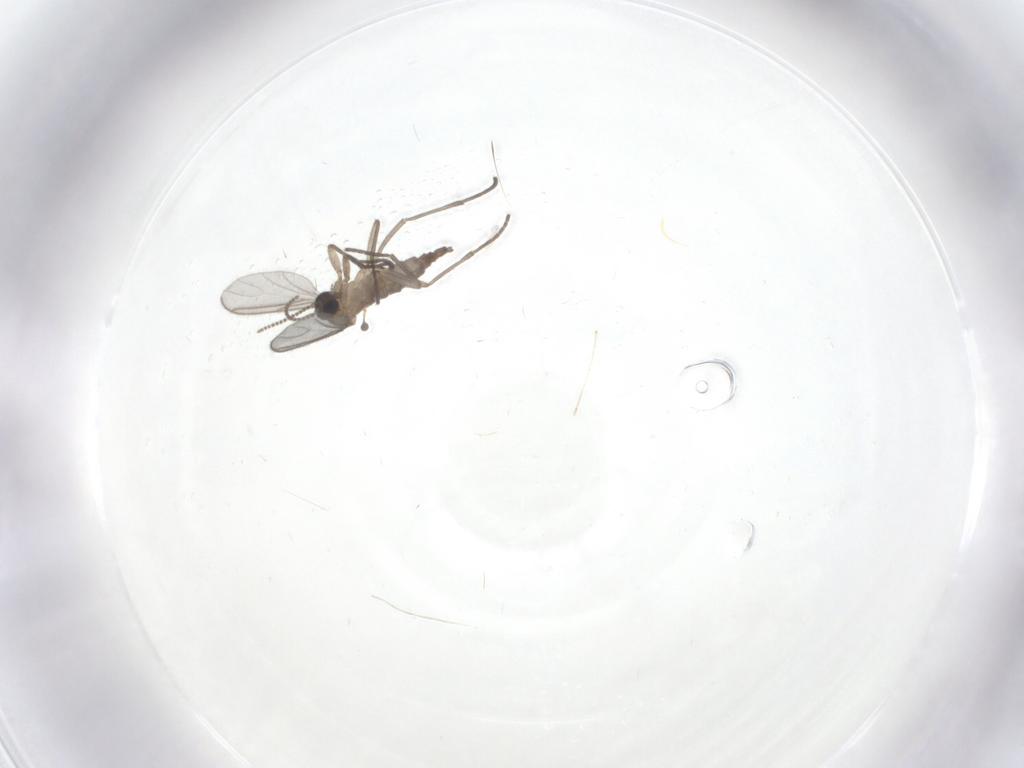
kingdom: Animalia
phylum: Arthropoda
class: Insecta
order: Diptera
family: Sciaridae
